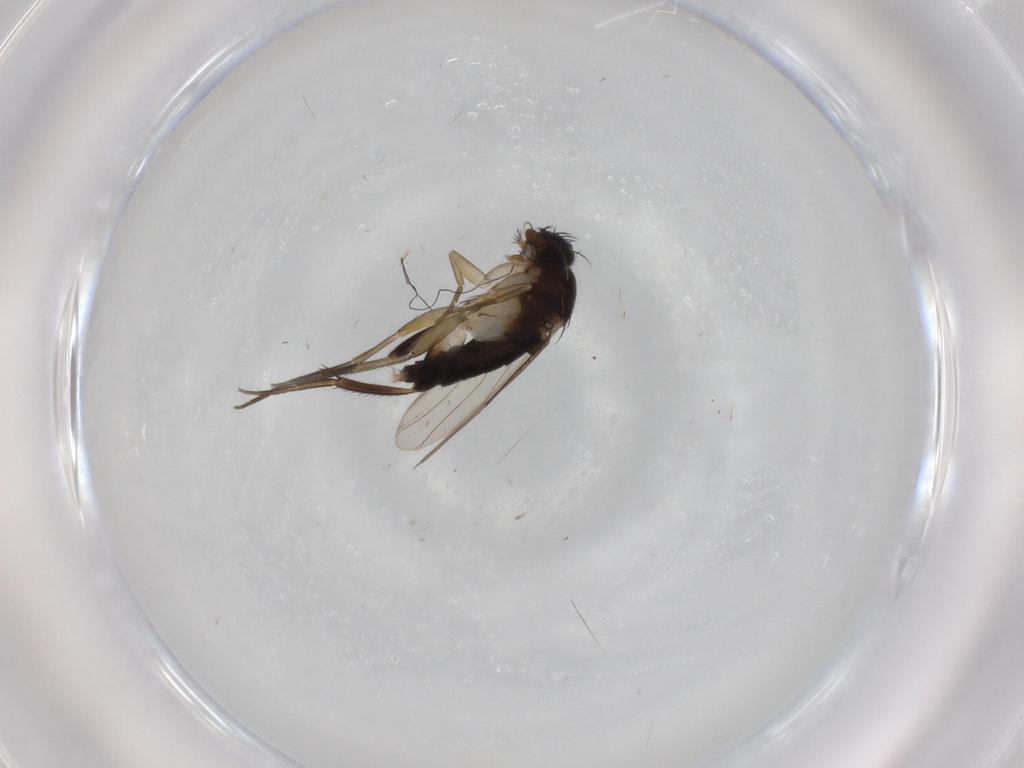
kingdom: Animalia
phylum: Arthropoda
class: Insecta
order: Diptera
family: Phoridae
